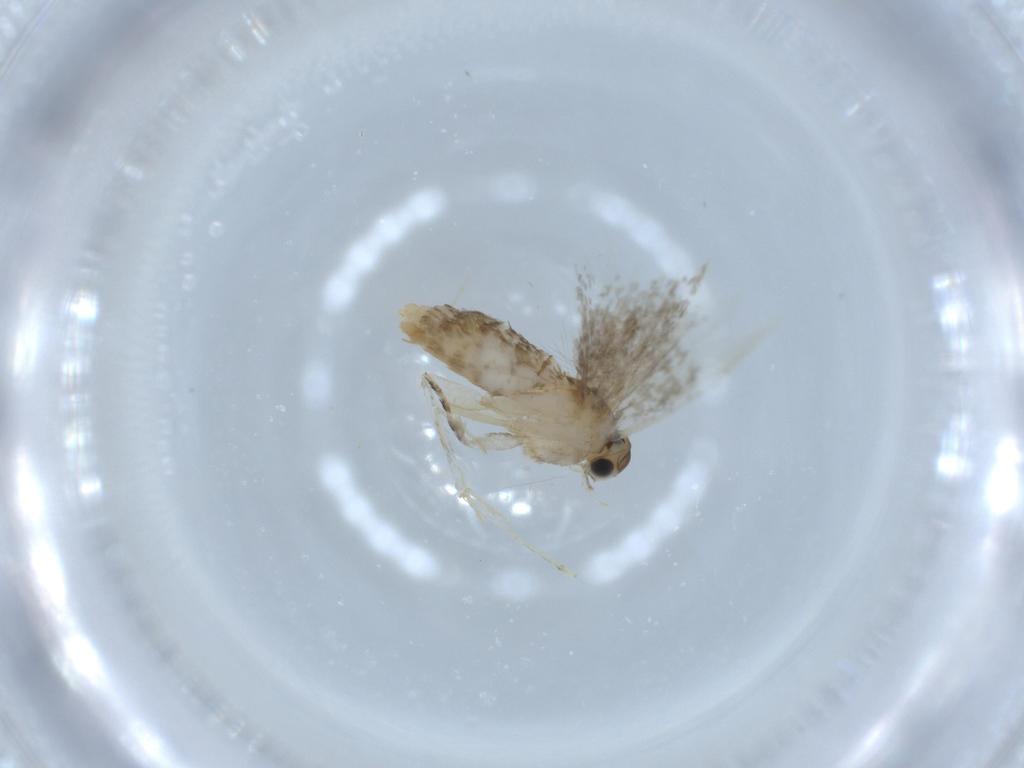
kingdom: Animalia
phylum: Arthropoda
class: Insecta
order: Lepidoptera
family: Tineidae
